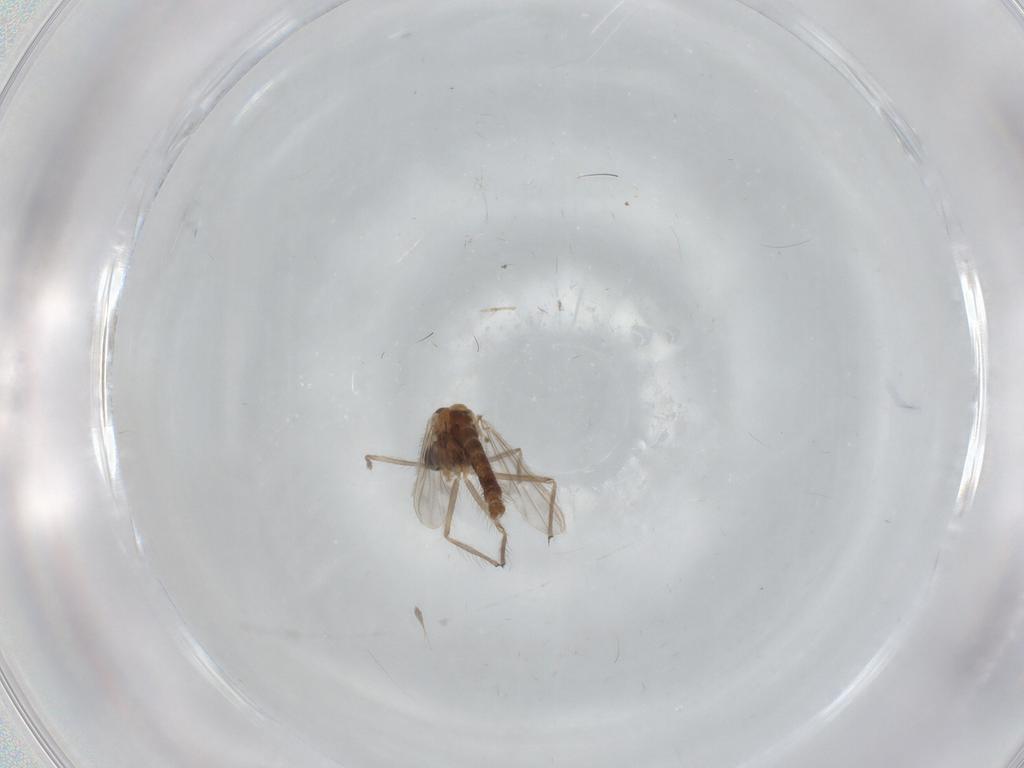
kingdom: Animalia
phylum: Arthropoda
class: Insecta
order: Diptera
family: Chironomidae
